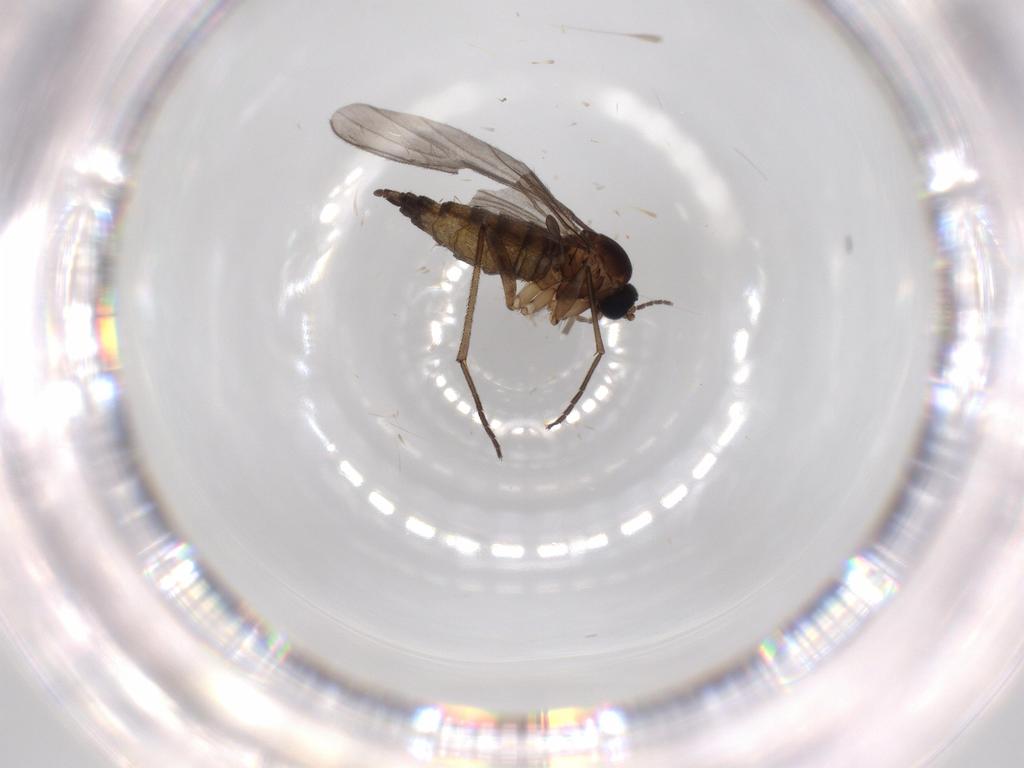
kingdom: Animalia
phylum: Arthropoda
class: Insecta
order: Diptera
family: Sciaridae
